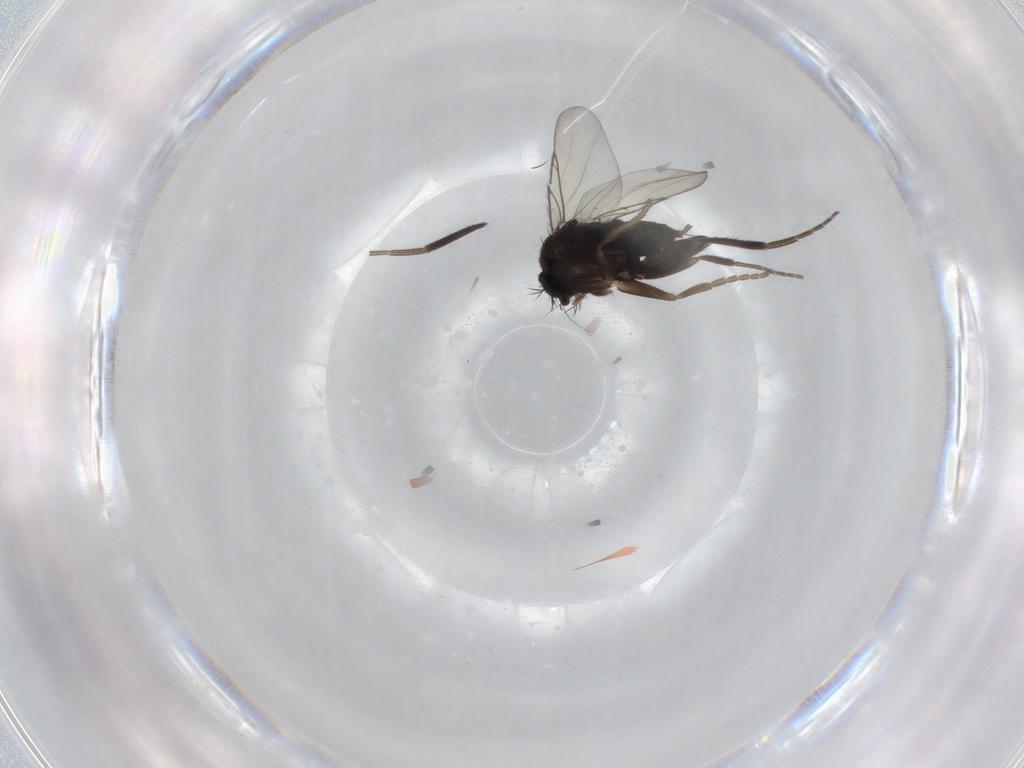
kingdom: Animalia
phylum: Arthropoda
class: Insecta
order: Diptera
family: Phoridae
